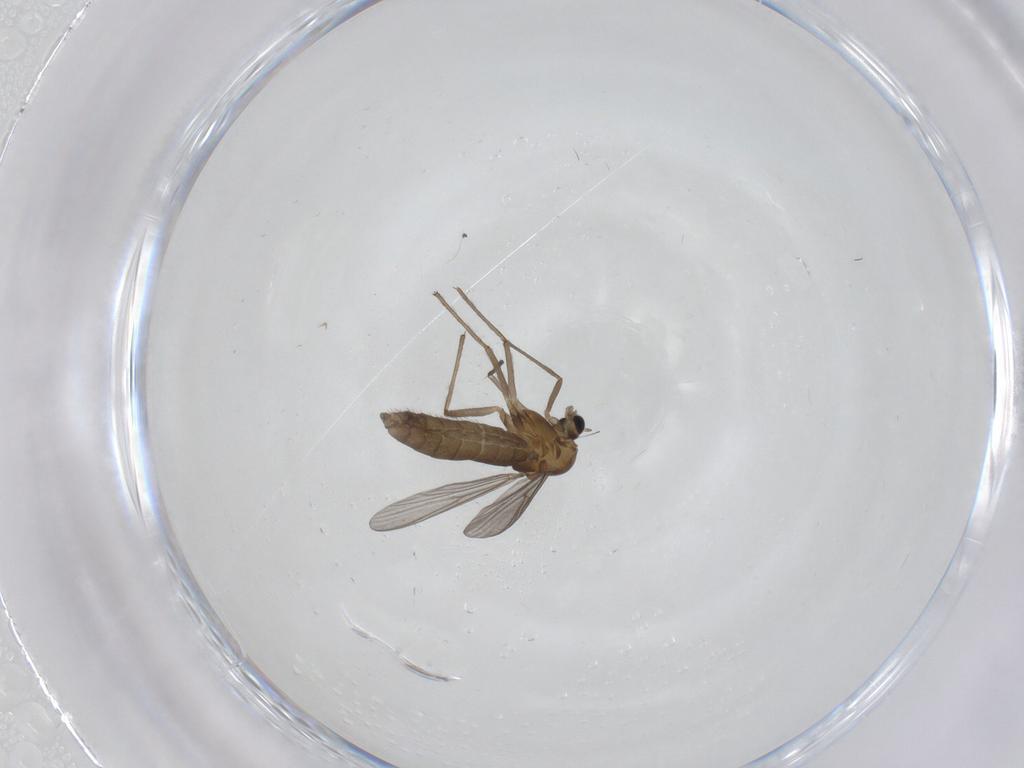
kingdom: Animalia
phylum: Arthropoda
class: Insecta
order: Diptera
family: Chironomidae
